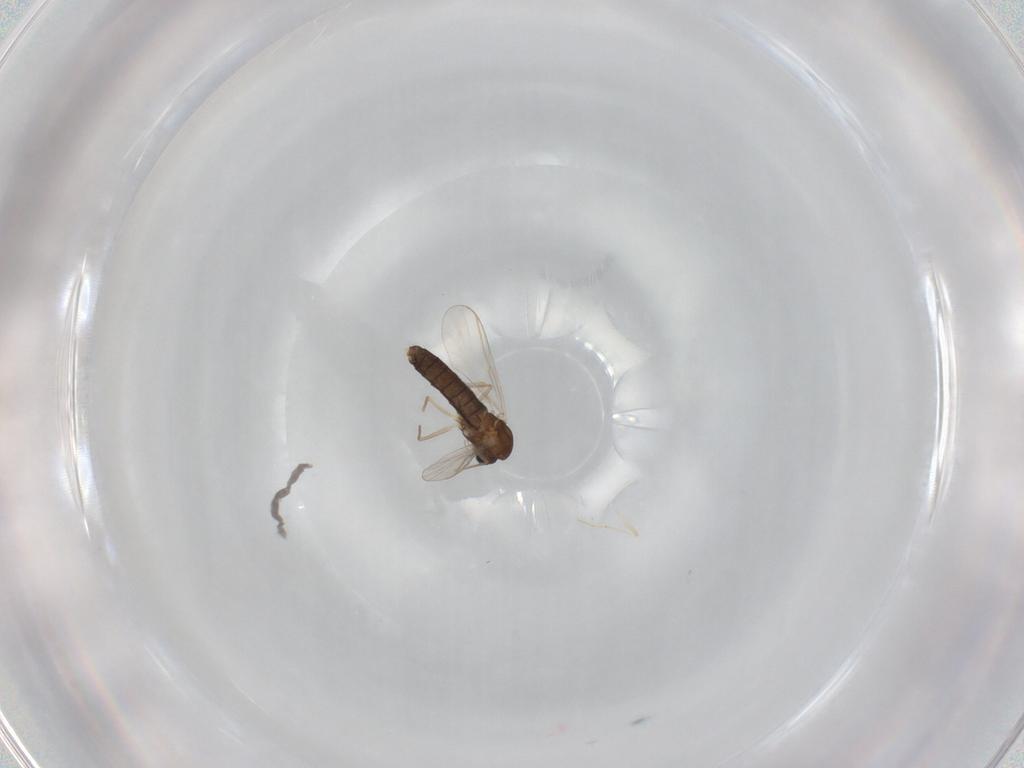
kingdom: Animalia
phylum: Arthropoda
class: Insecta
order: Diptera
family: Chironomidae
